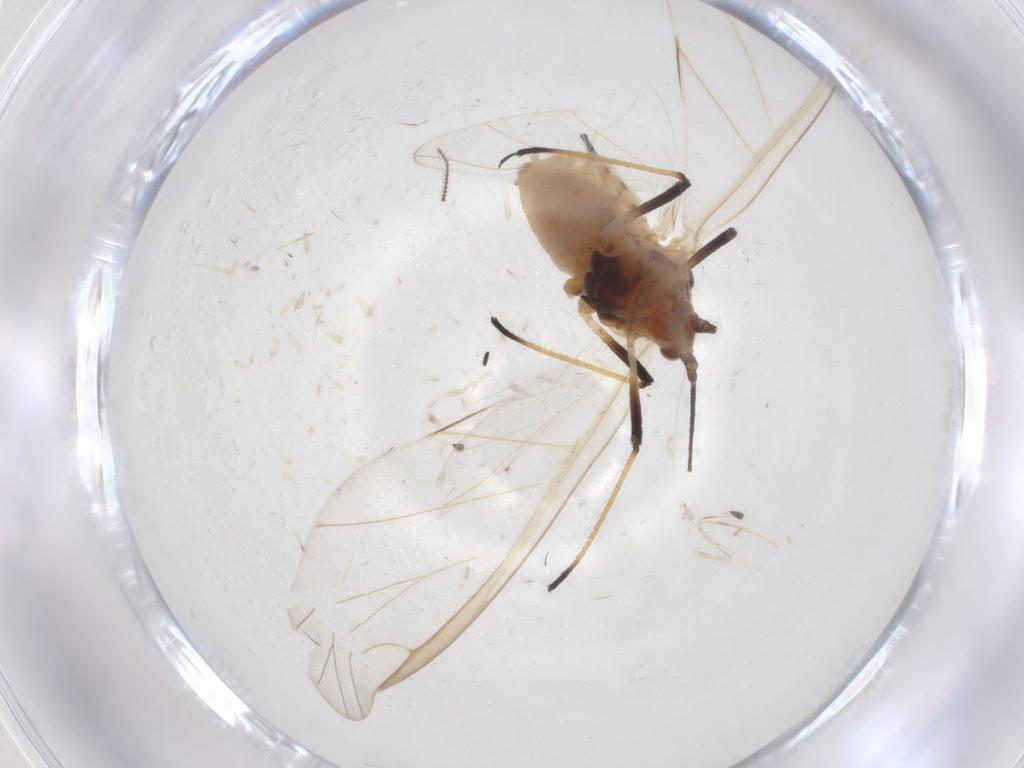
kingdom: Animalia
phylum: Arthropoda
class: Insecta
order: Hemiptera
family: Aphididae
